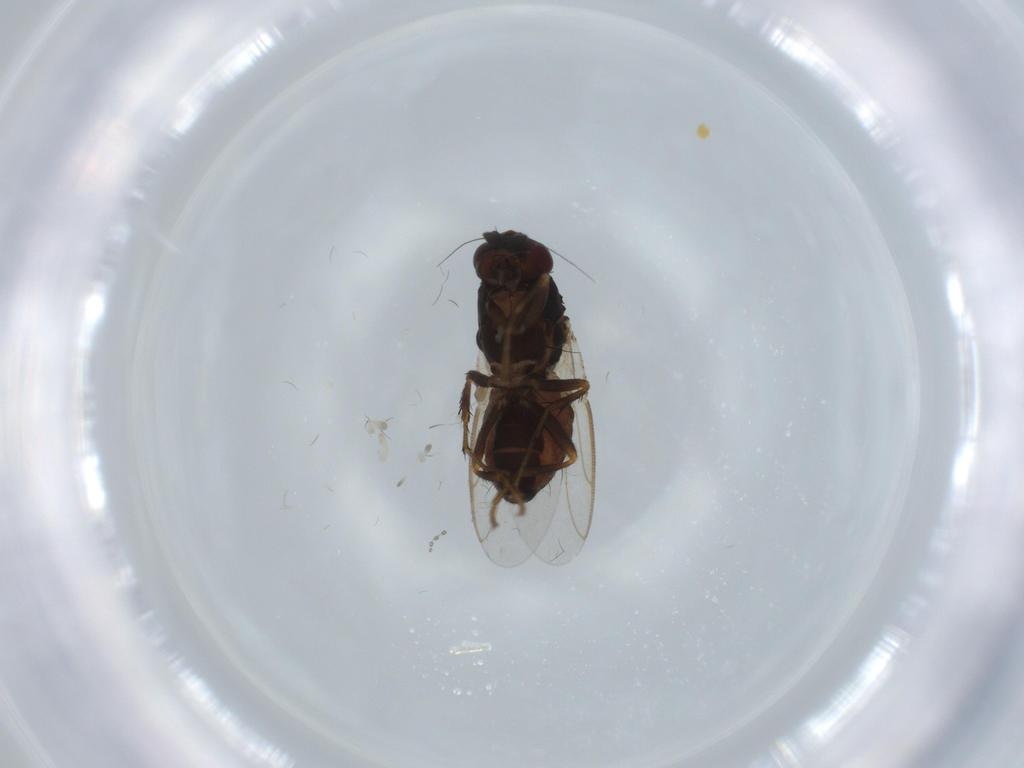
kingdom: Animalia
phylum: Arthropoda
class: Insecta
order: Diptera
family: Sphaeroceridae
